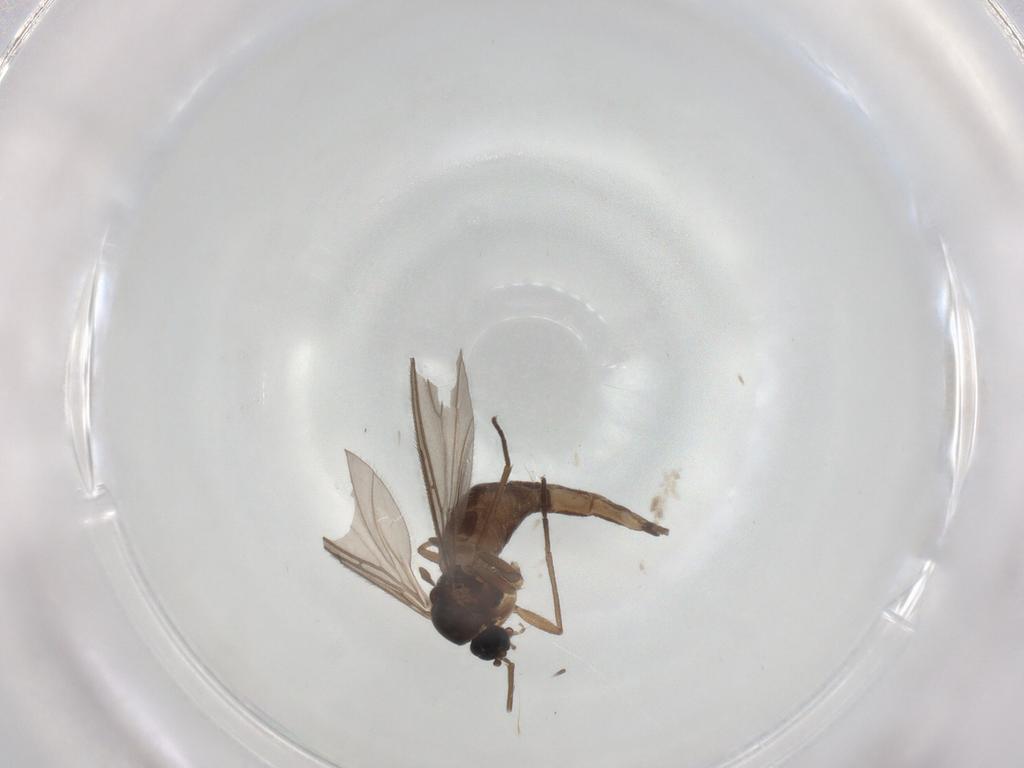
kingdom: Animalia
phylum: Arthropoda
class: Insecta
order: Diptera
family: Sciaridae
